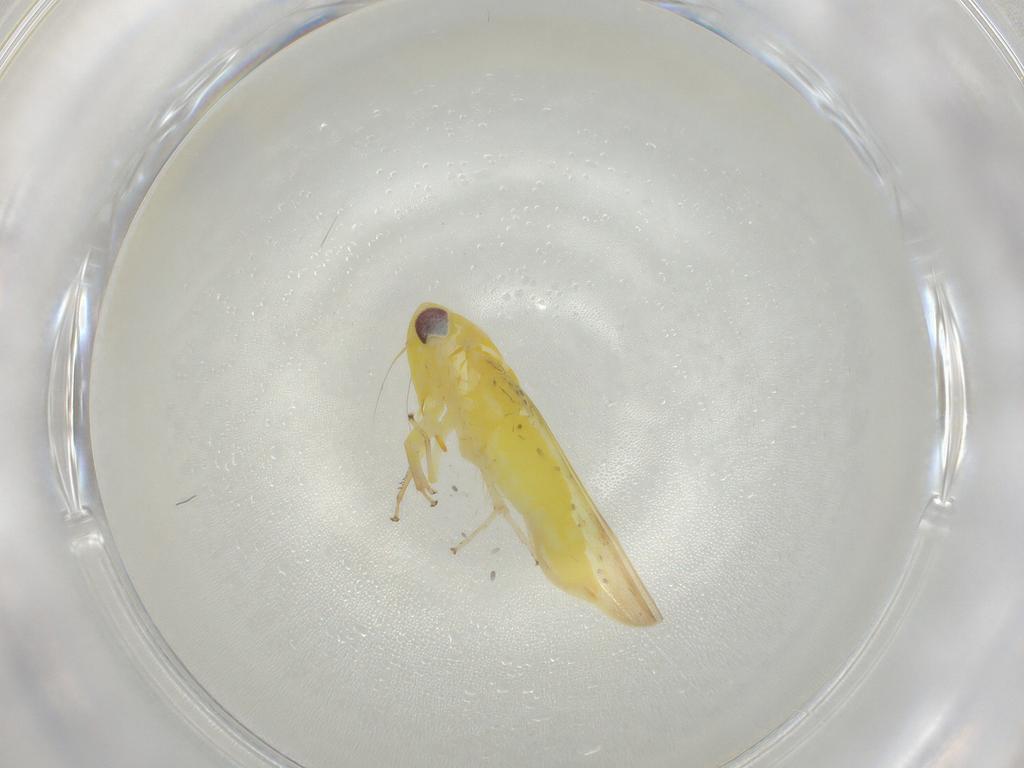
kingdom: Animalia
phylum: Arthropoda
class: Insecta
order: Hemiptera
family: Cicadellidae
